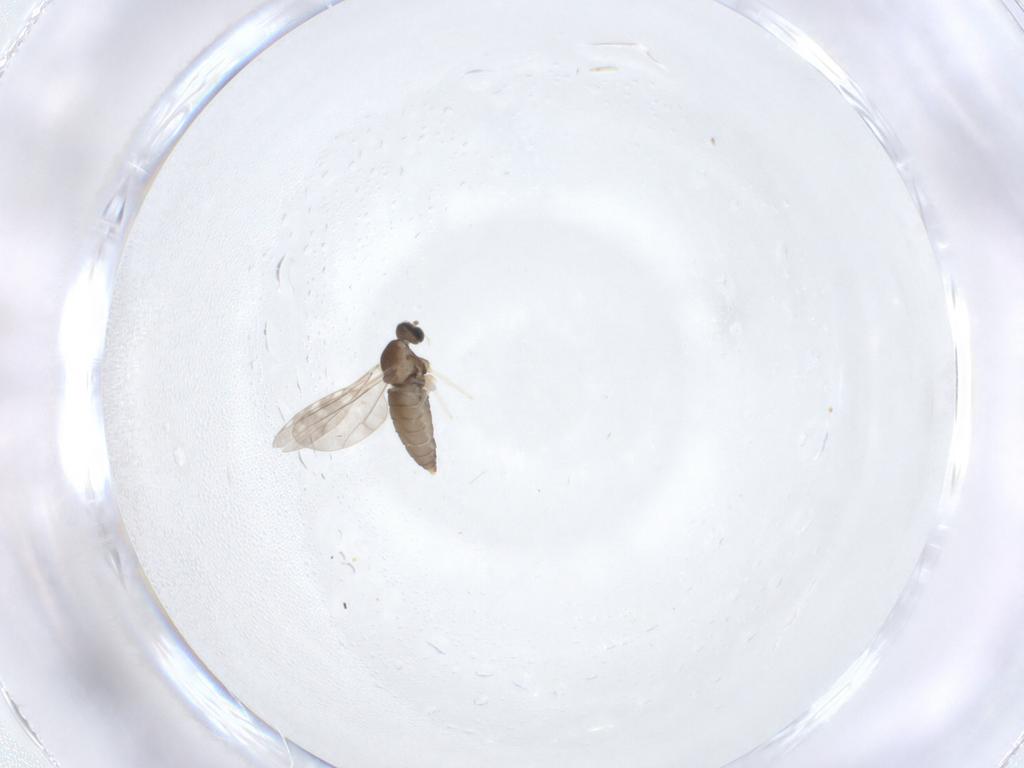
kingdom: Animalia
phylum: Arthropoda
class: Insecta
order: Diptera
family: Cecidomyiidae
